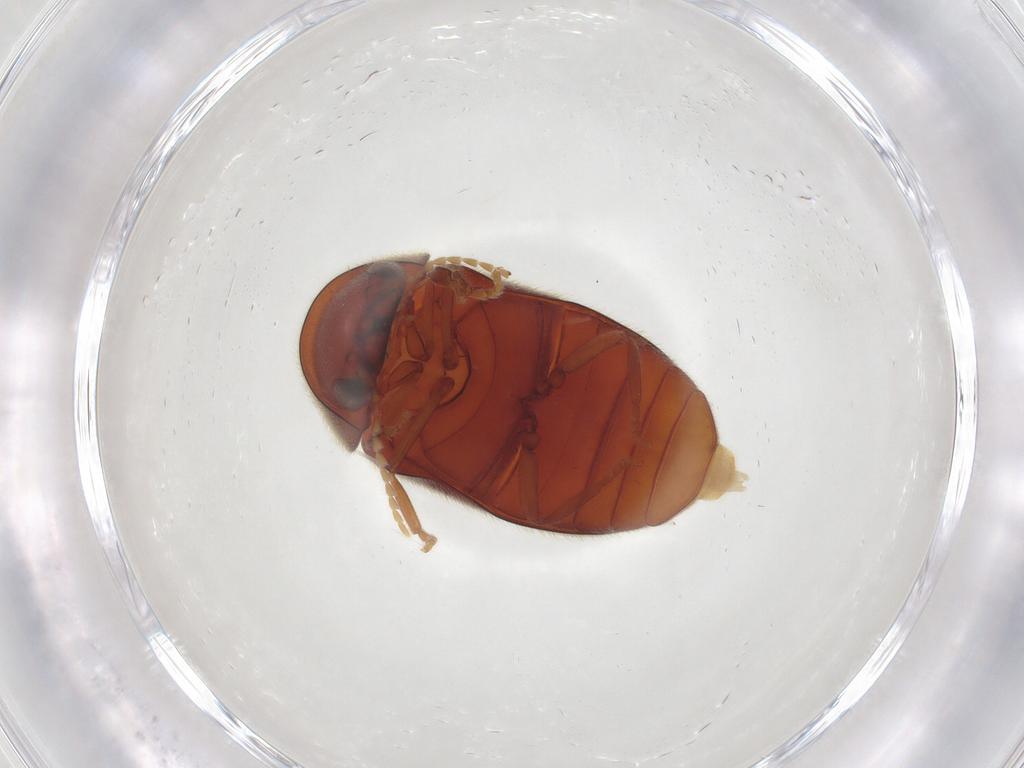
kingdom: Animalia
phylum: Arthropoda
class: Insecta
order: Coleoptera
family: Ptinidae
